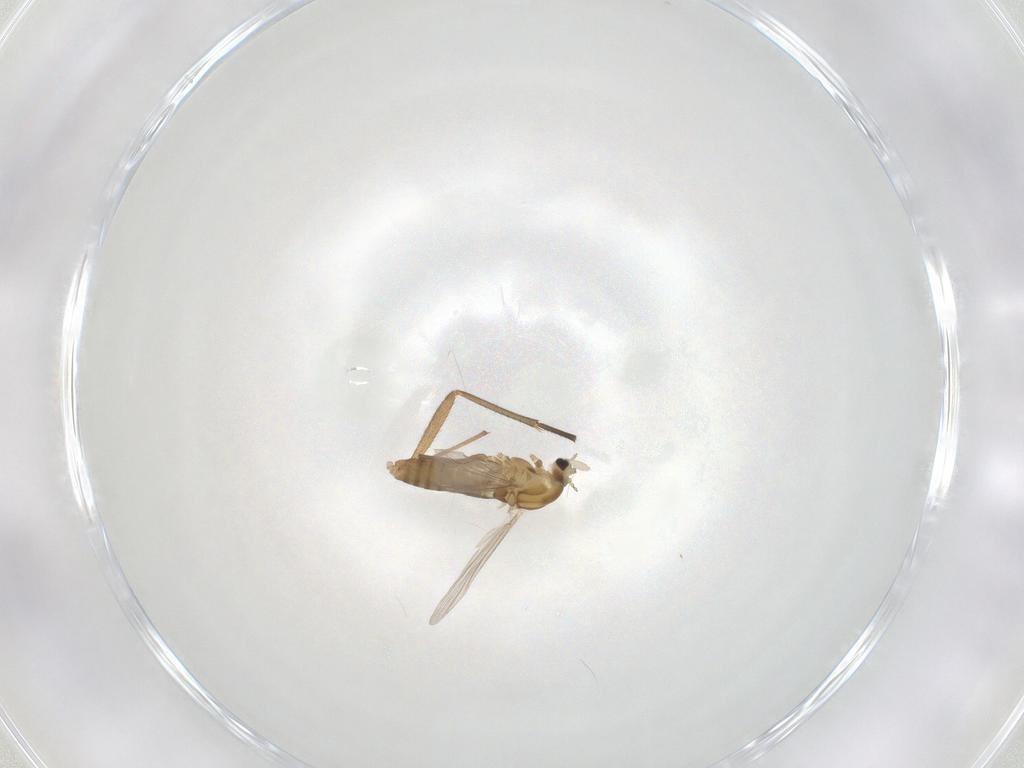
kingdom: Animalia
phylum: Arthropoda
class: Insecta
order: Diptera
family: Chironomidae
